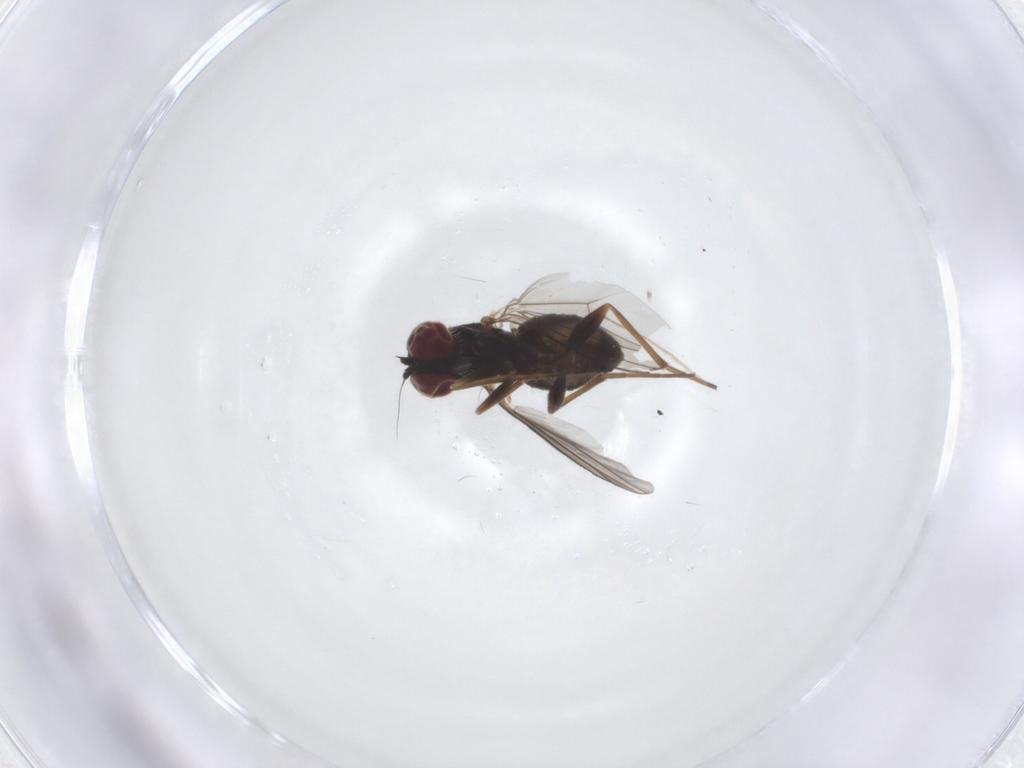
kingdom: Animalia
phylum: Arthropoda
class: Insecta
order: Diptera
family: Dolichopodidae
